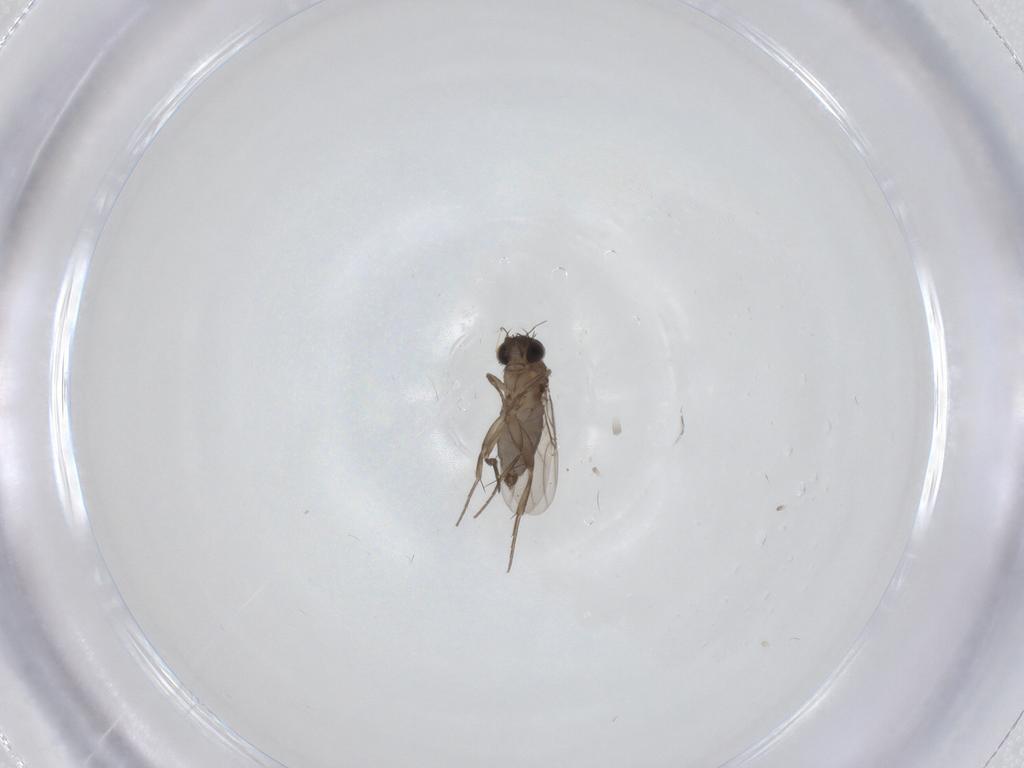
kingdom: Animalia
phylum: Arthropoda
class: Insecta
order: Diptera
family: Phoridae
